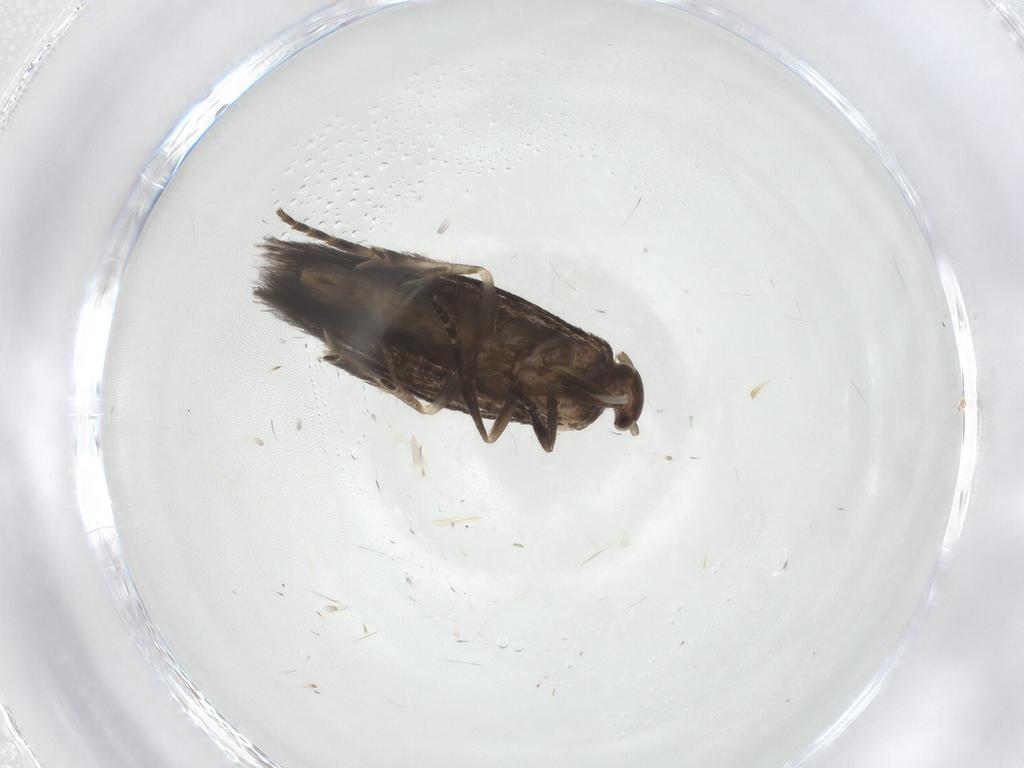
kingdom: Animalia
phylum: Arthropoda
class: Insecta
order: Lepidoptera
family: Elachistidae
